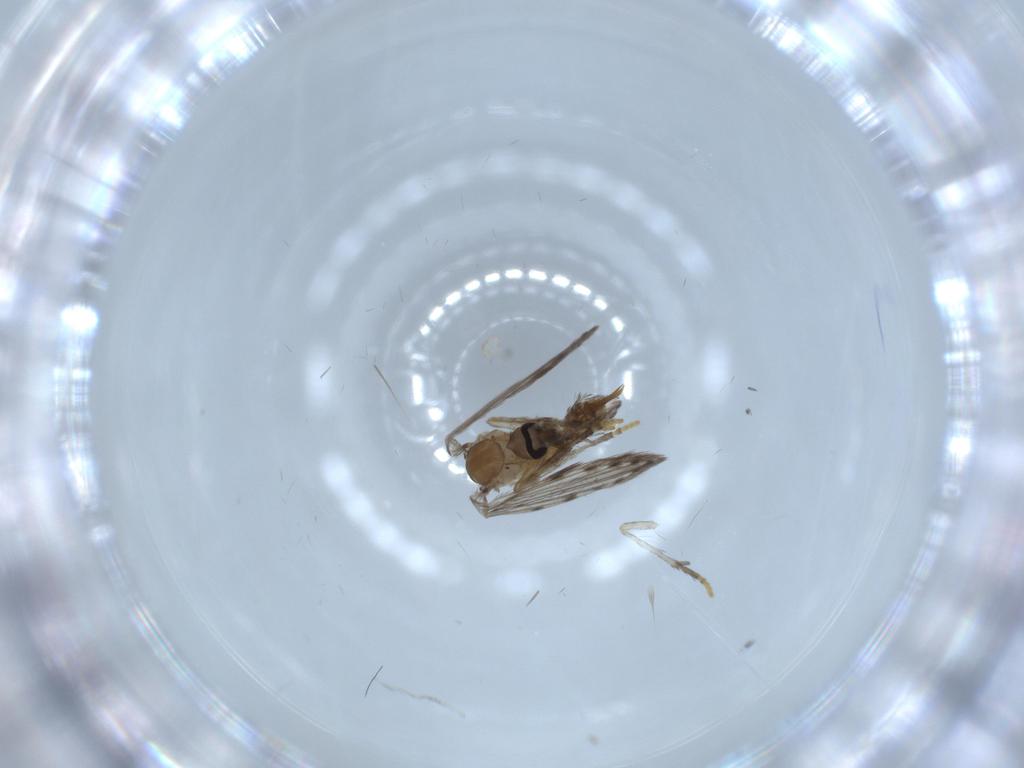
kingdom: Animalia
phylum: Arthropoda
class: Insecta
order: Diptera
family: Psychodidae
